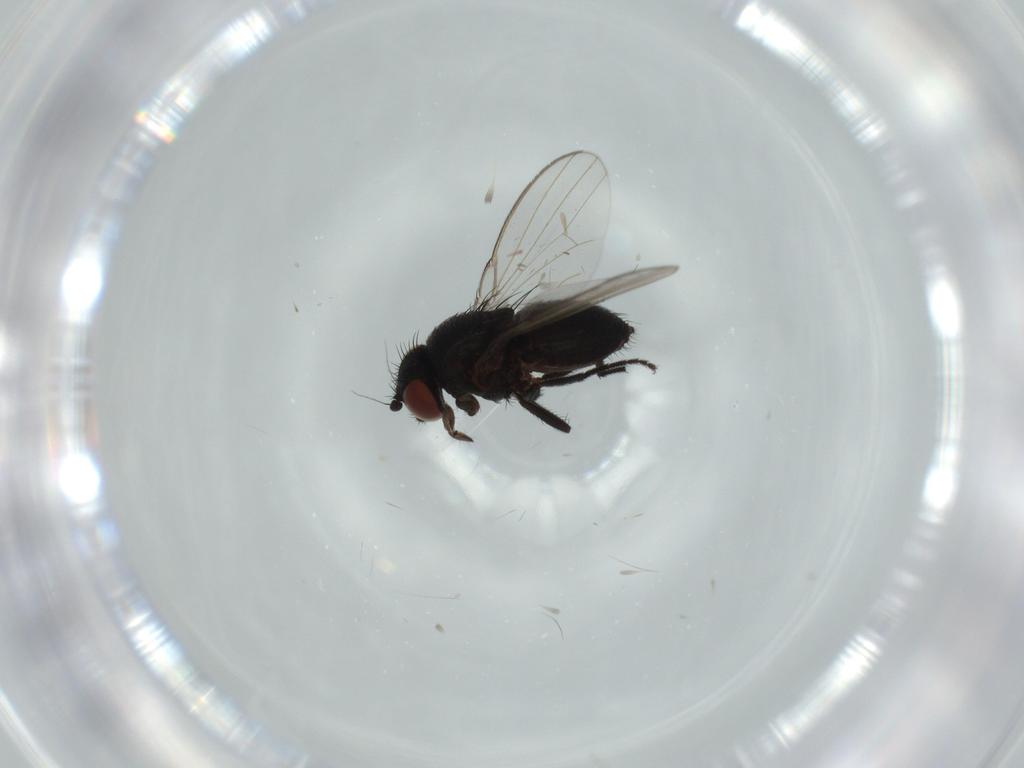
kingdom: Animalia
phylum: Arthropoda
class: Insecta
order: Diptera
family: Milichiidae
